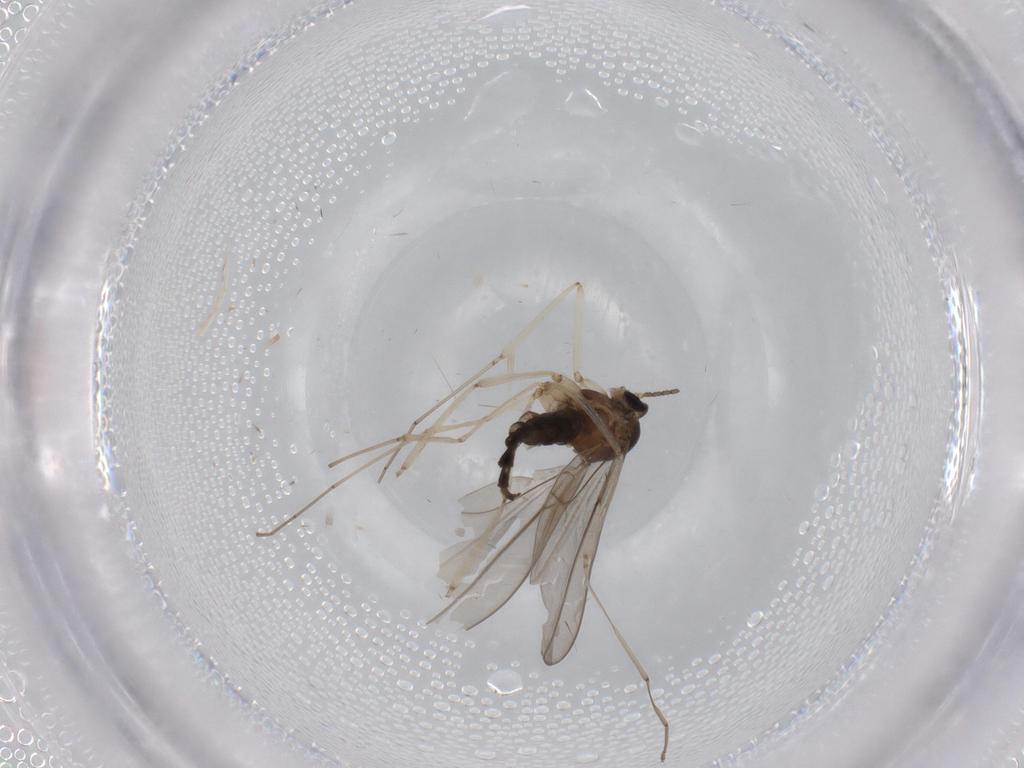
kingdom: Animalia
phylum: Arthropoda
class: Insecta
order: Diptera
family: Cecidomyiidae
